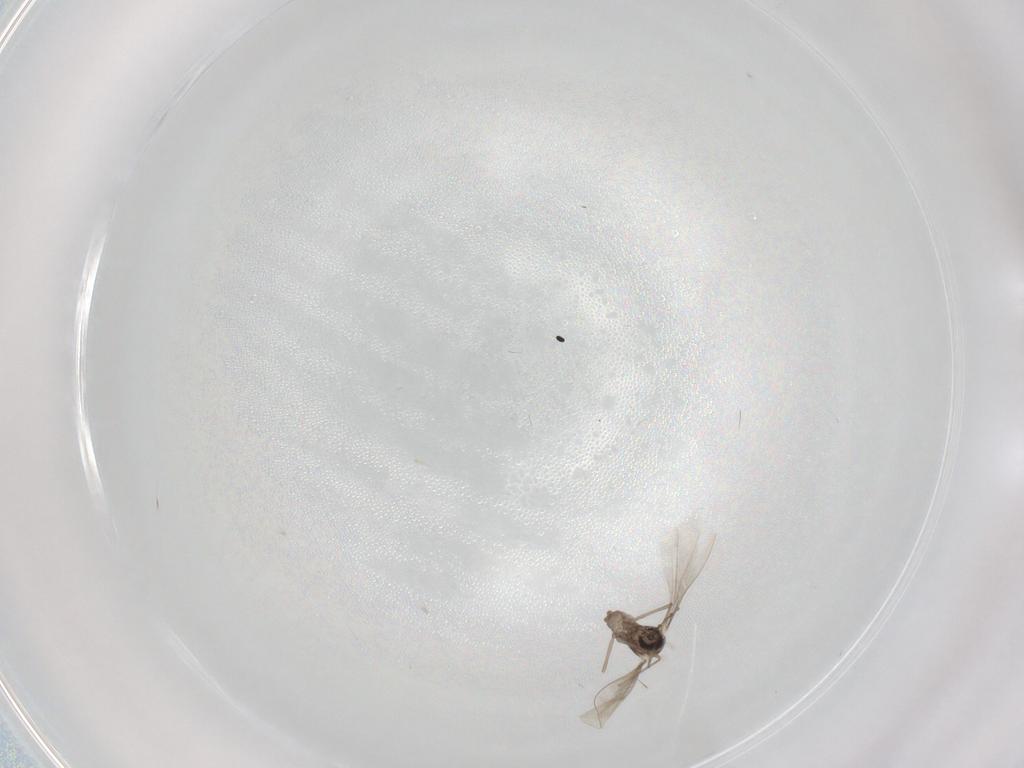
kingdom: Animalia
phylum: Arthropoda
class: Insecta
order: Diptera
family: Cecidomyiidae
